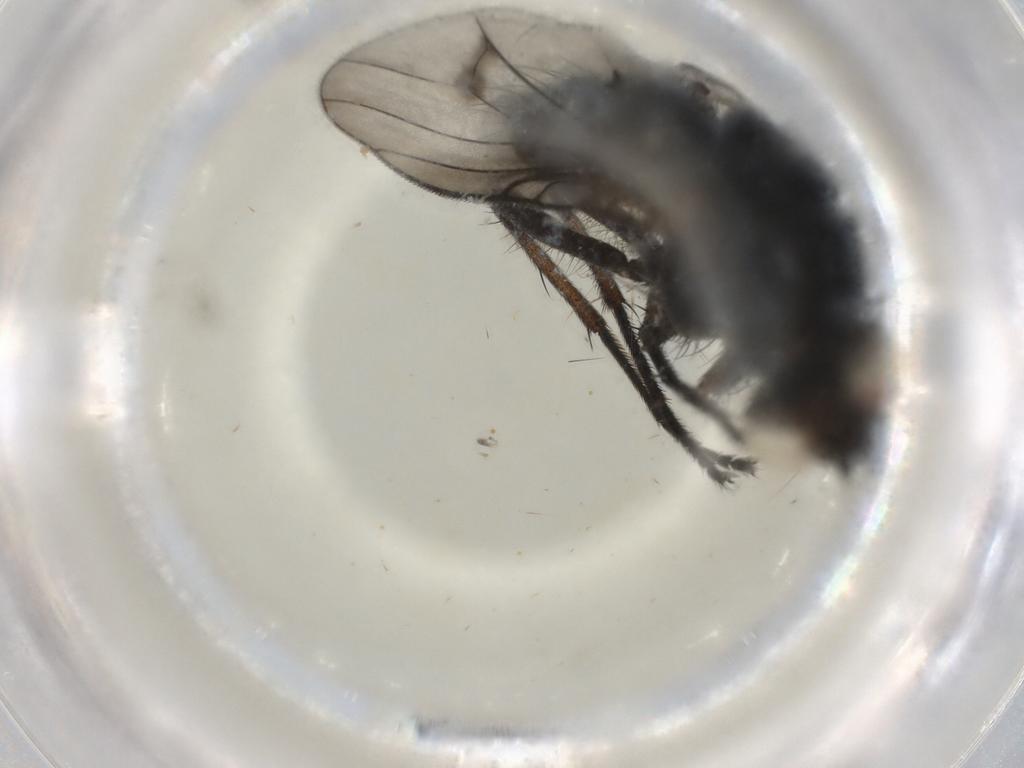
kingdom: Animalia
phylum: Arthropoda
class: Insecta
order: Diptera
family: Muscidae
